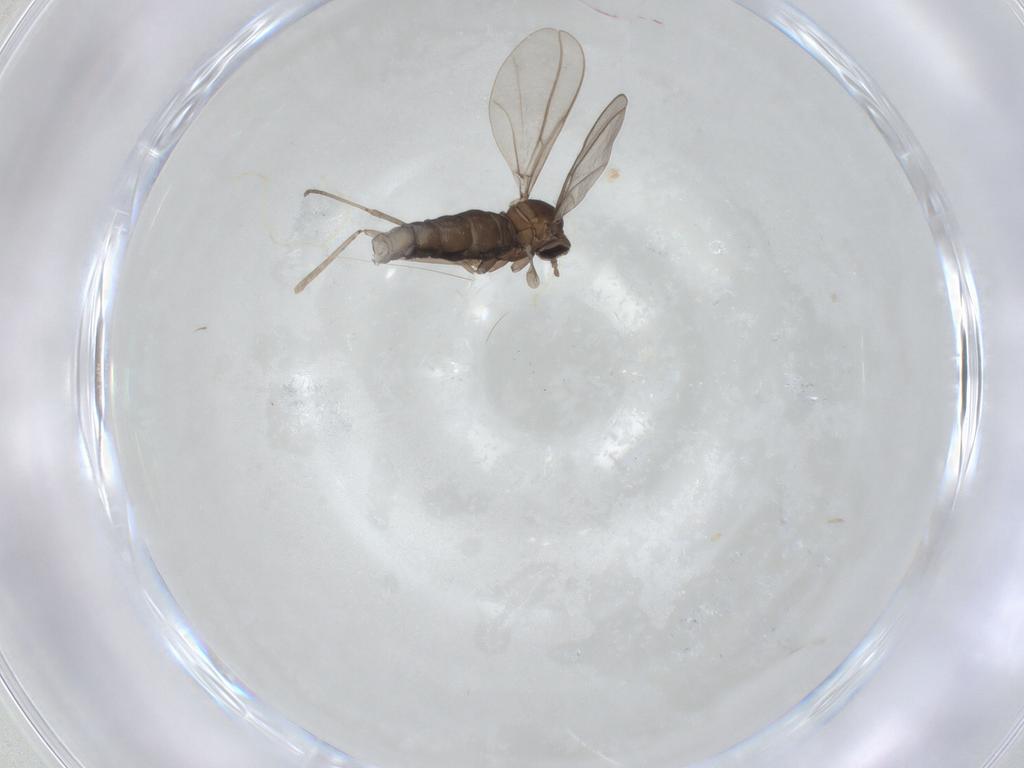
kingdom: Animalia
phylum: Arthropoda
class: Insecta
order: Diptera
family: Cecidomyiidae
